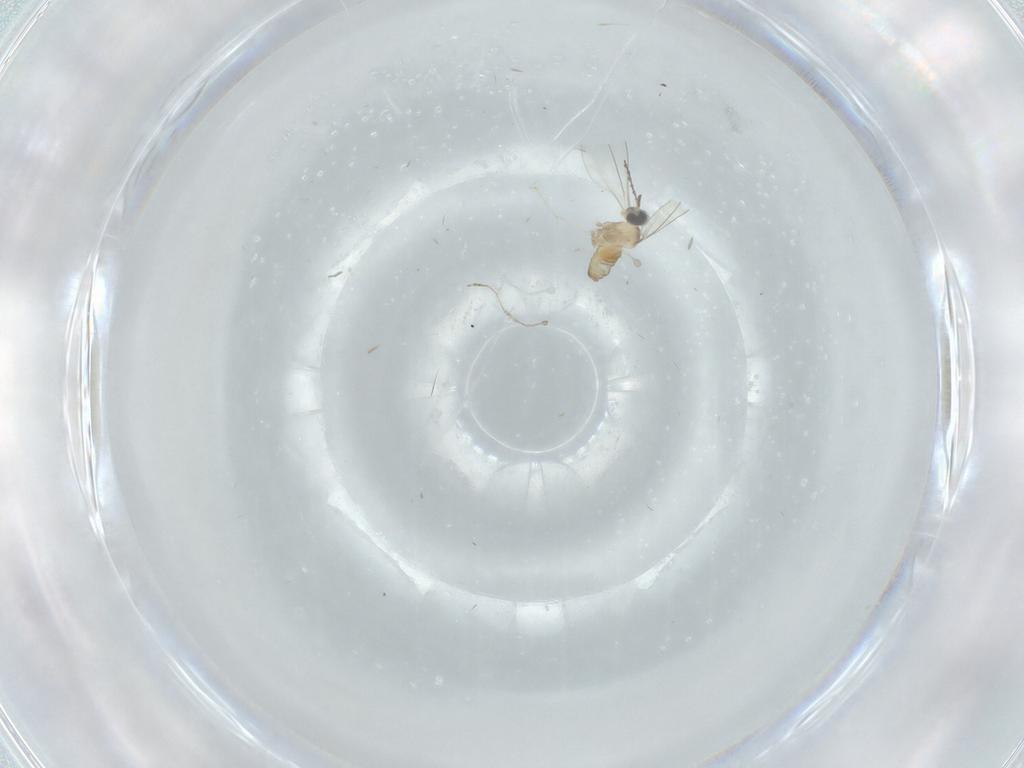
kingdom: Animalia
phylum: Arthropoda
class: Insecta
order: Diptera
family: Cecidomyiidae
